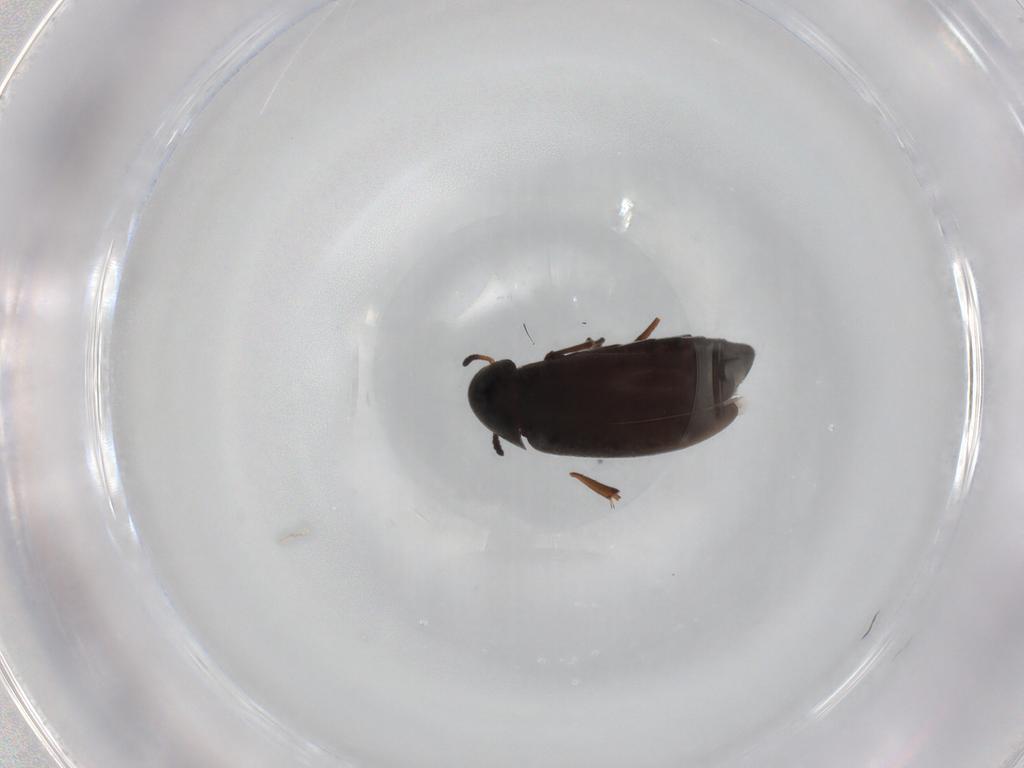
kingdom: Animalia
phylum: Arthropoda
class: Insecta
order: Coleoptera
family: Scraptiidae
